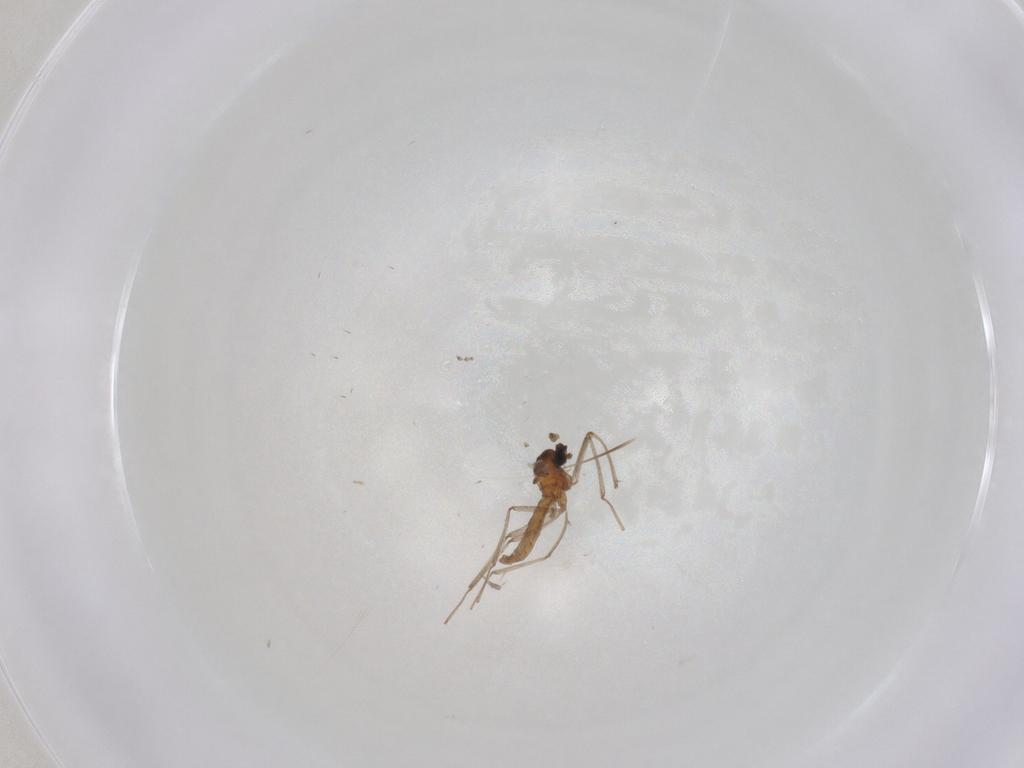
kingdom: Animalia
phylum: Arthropoda
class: Insecta
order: Diptera
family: Cecidomyiidae
